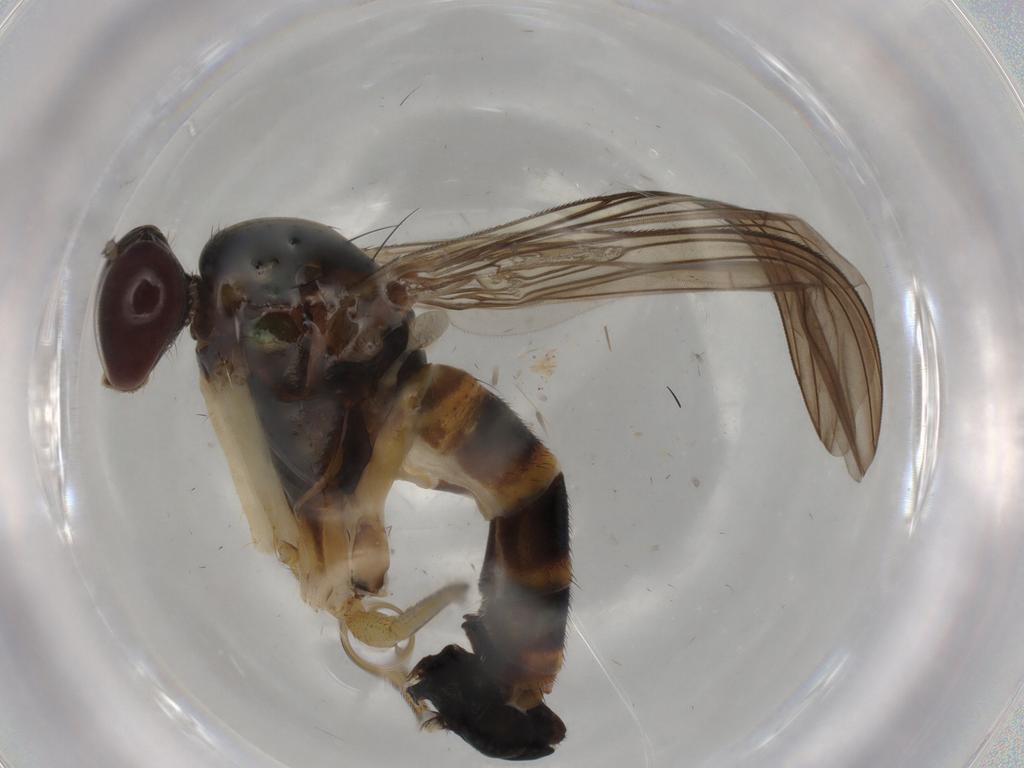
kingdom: Animalia
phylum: Arthropoda
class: Insecta
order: Diptera
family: Dolichopodidae
